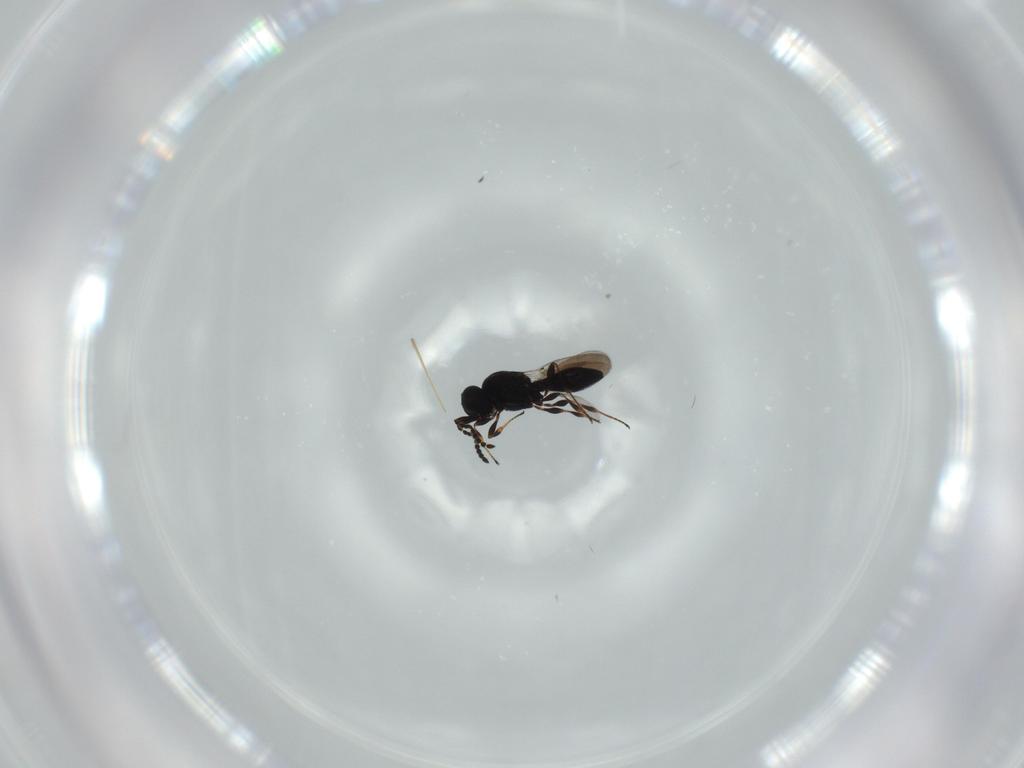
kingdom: Animalia
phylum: Arthropoda
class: Insecta
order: Hymenoptera
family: Platygastridae
